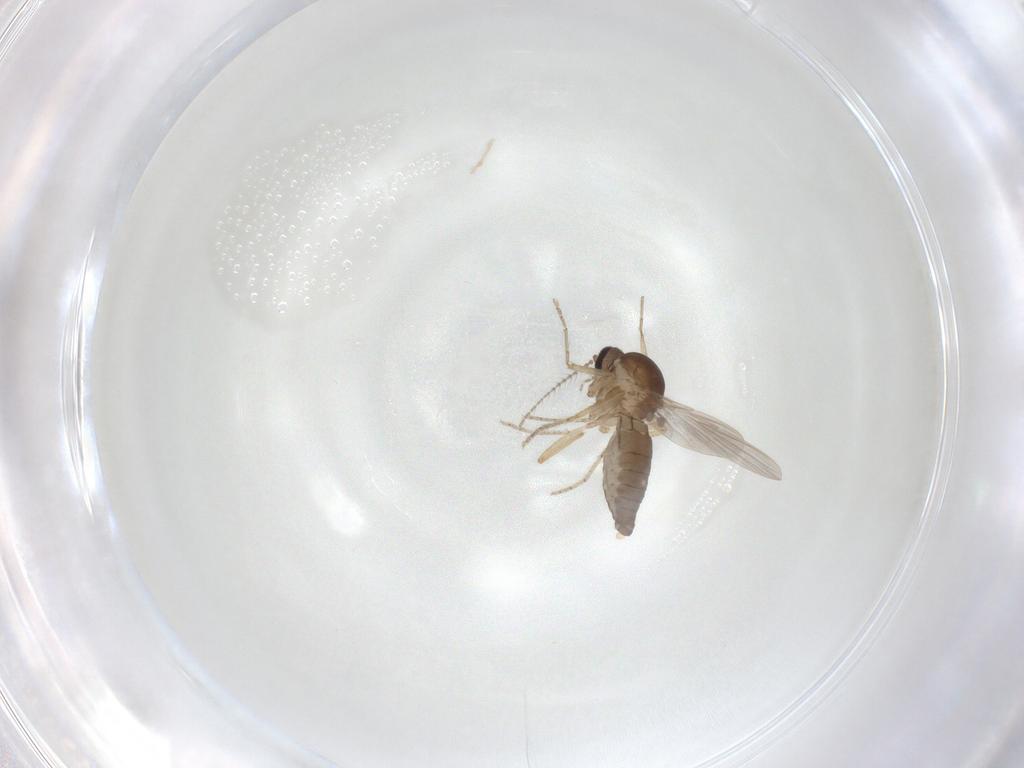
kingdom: Animalia
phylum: Arthropoda
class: Insecta
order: Diptera
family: Ceratopogonidae
